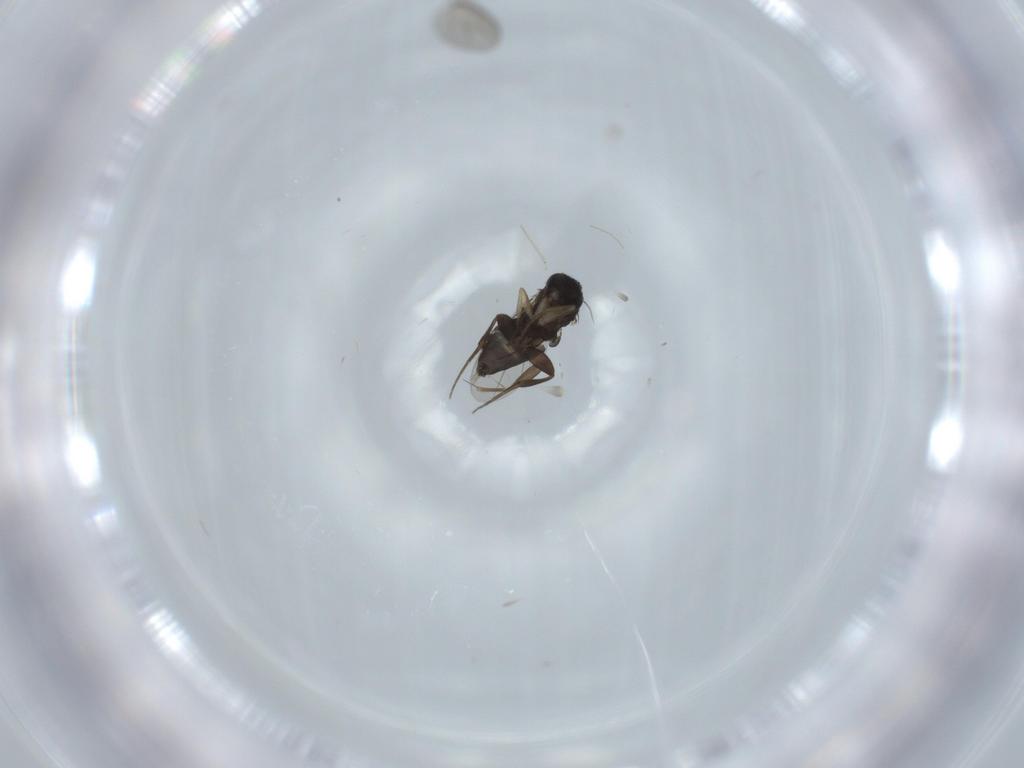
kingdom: Animalia
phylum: Arthropoda
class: Insecta
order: Diptera
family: Phoridae
